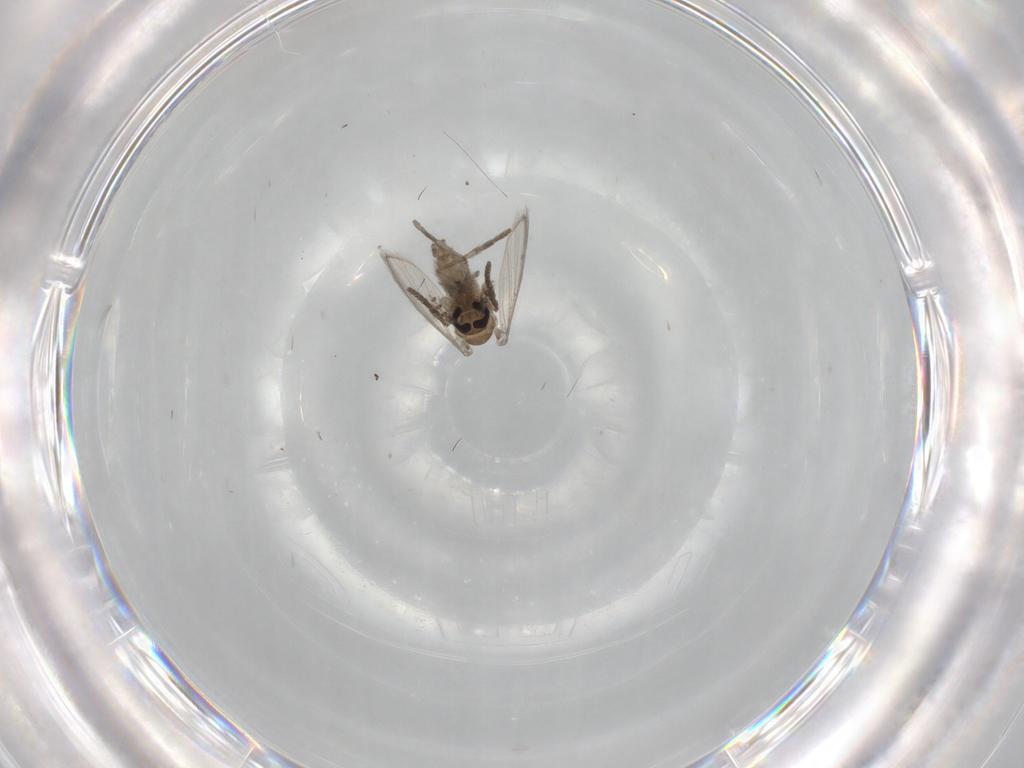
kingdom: Animalia
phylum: Arthropoda
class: Insecta
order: Diptera
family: Psychodidae
